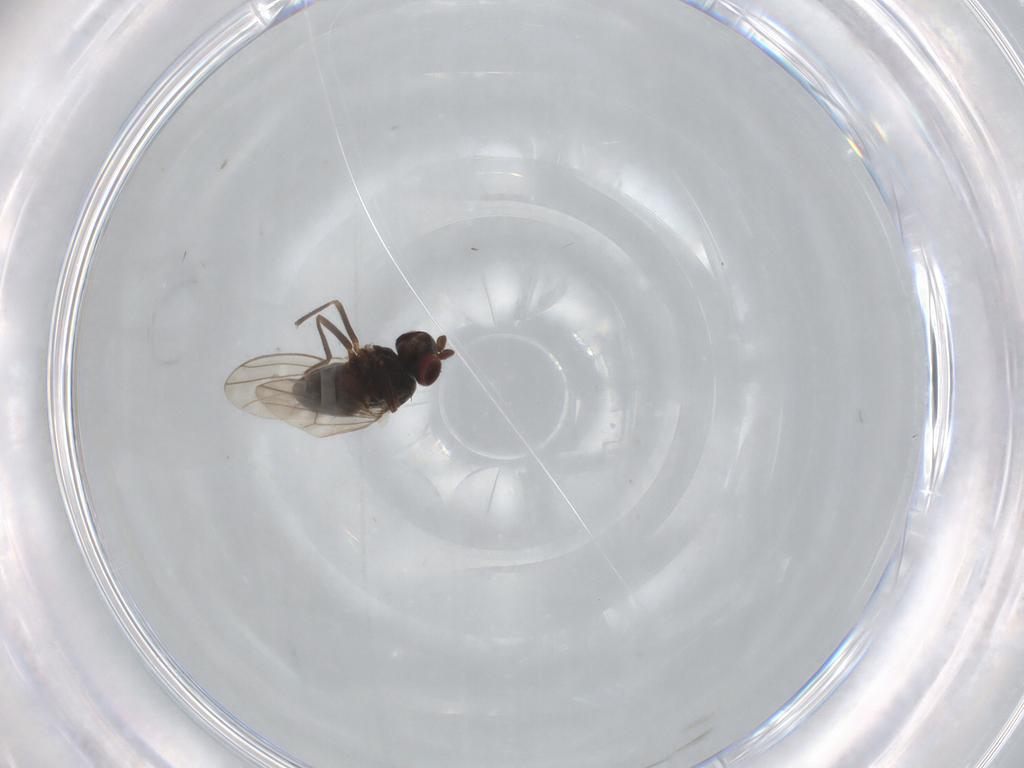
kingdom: Animalia
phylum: Arthropoda
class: Insecta
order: Diptera
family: Ephydridae
